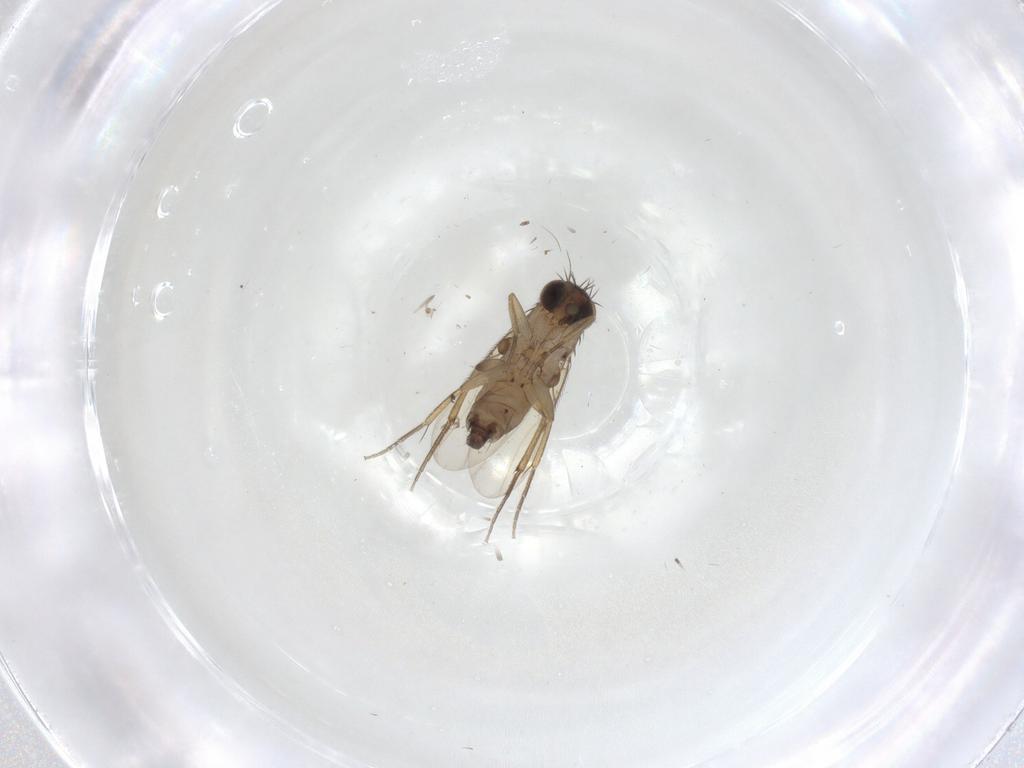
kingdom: Animalia
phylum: Arthropoda
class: Insecta
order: Diptera
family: Phoridae
